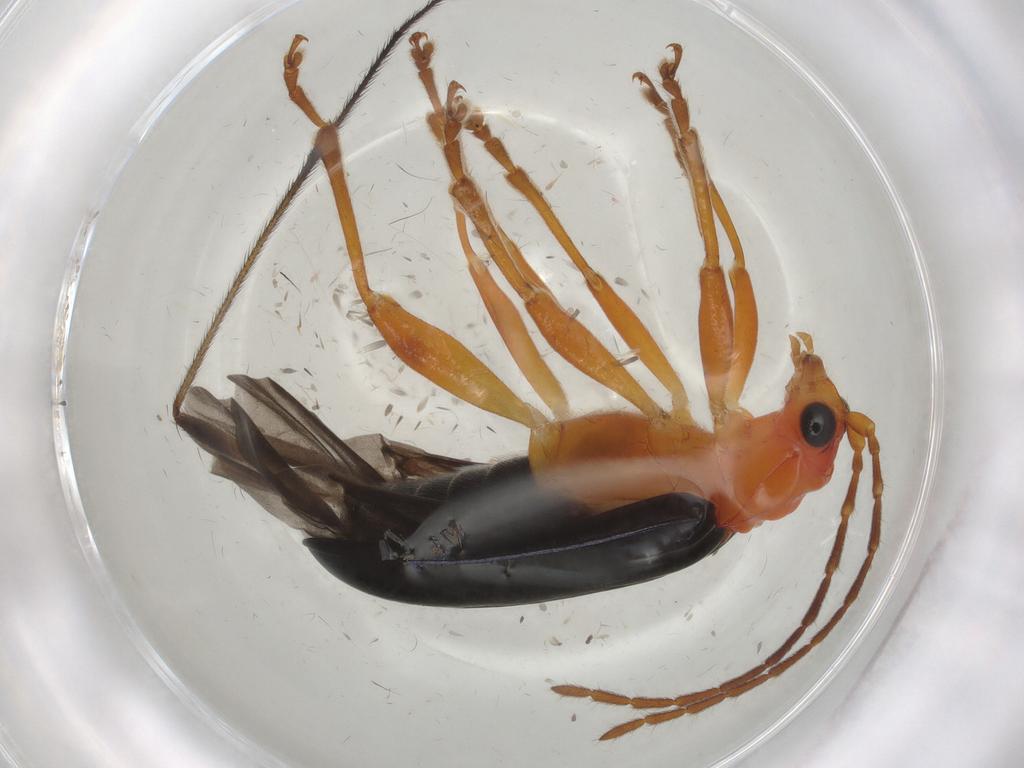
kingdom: Animalia
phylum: Arthropoda
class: Insecta
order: Coleoptera
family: Chrysomelidae
